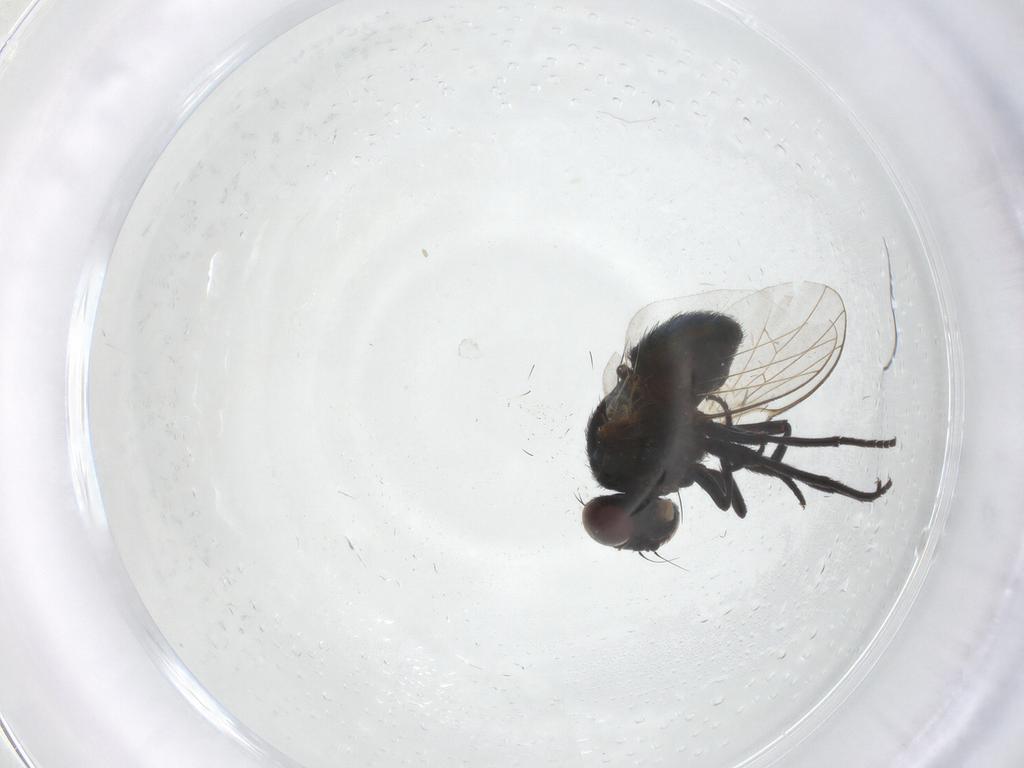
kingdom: Animalia
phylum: Arthropoda
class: Insecta
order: Diptera
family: Agromyzidae
